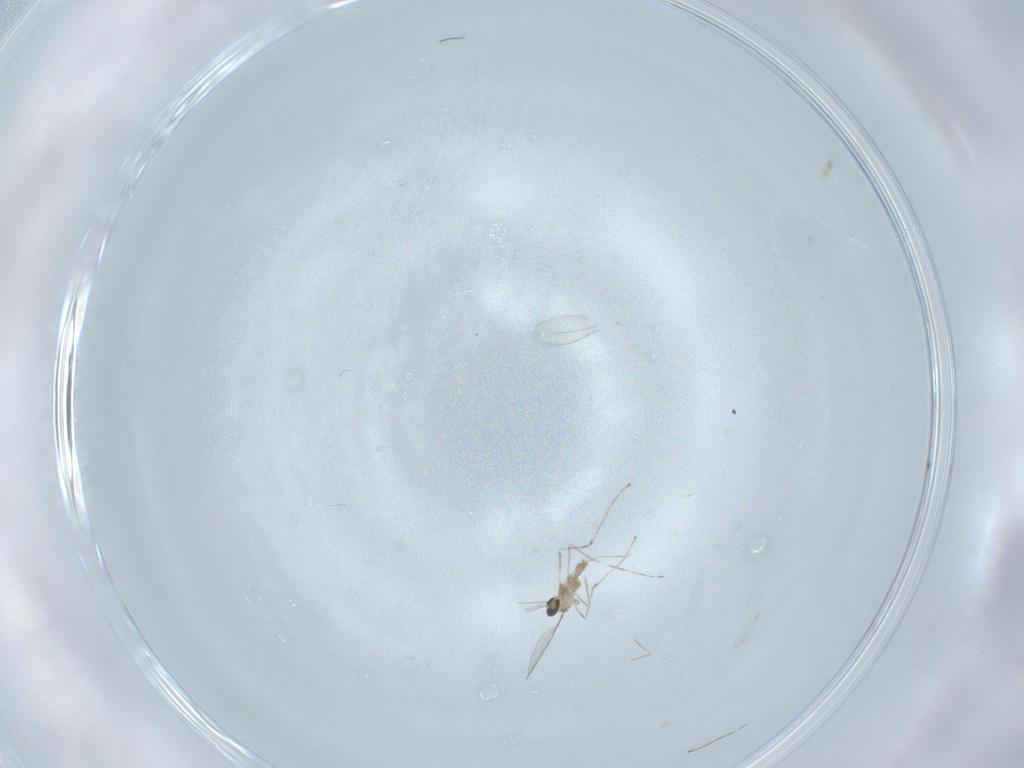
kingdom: Animalia
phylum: Arthropoda
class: Insecta
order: Diptera
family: Cecidomyiidae
